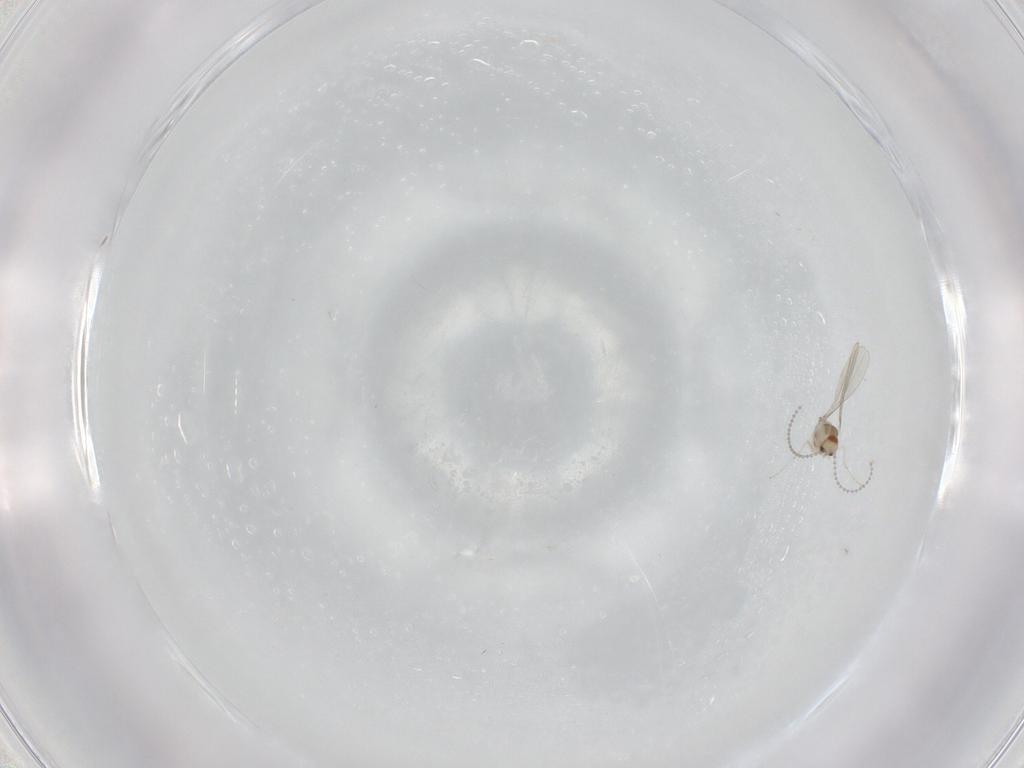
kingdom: Animalia
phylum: Arthropoda
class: Insecta
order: Diptera
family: Cecidomyiidae
